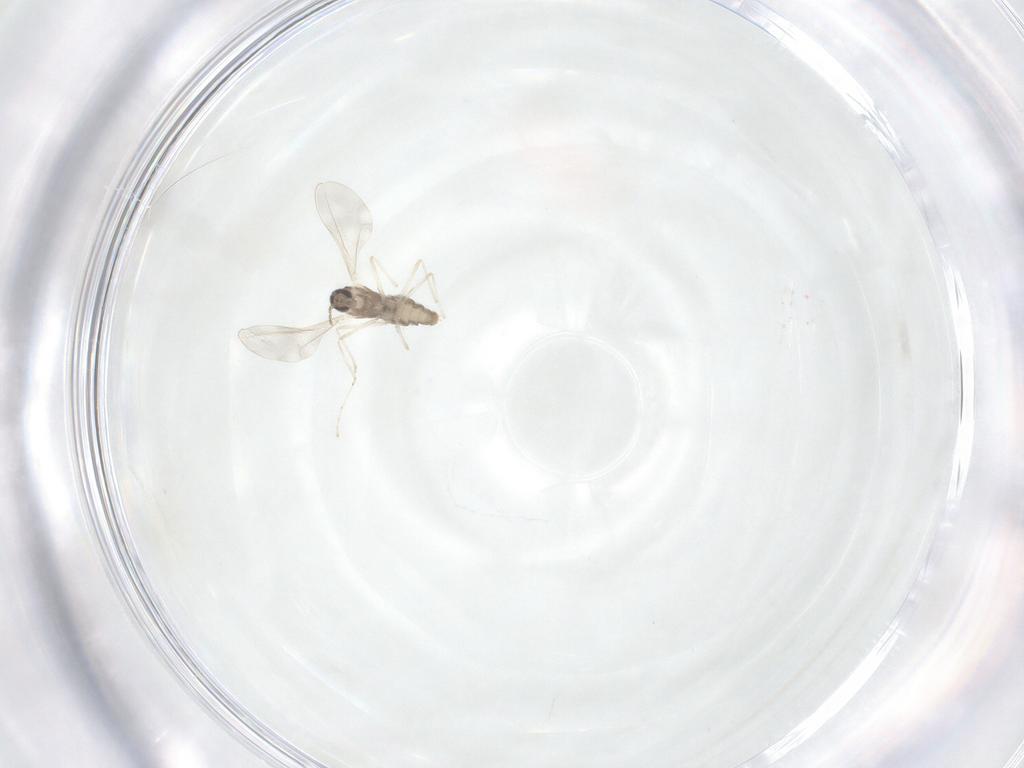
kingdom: Animalia
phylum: Arthropoda
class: Insecta
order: Diptera
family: Cecidomyiidae
